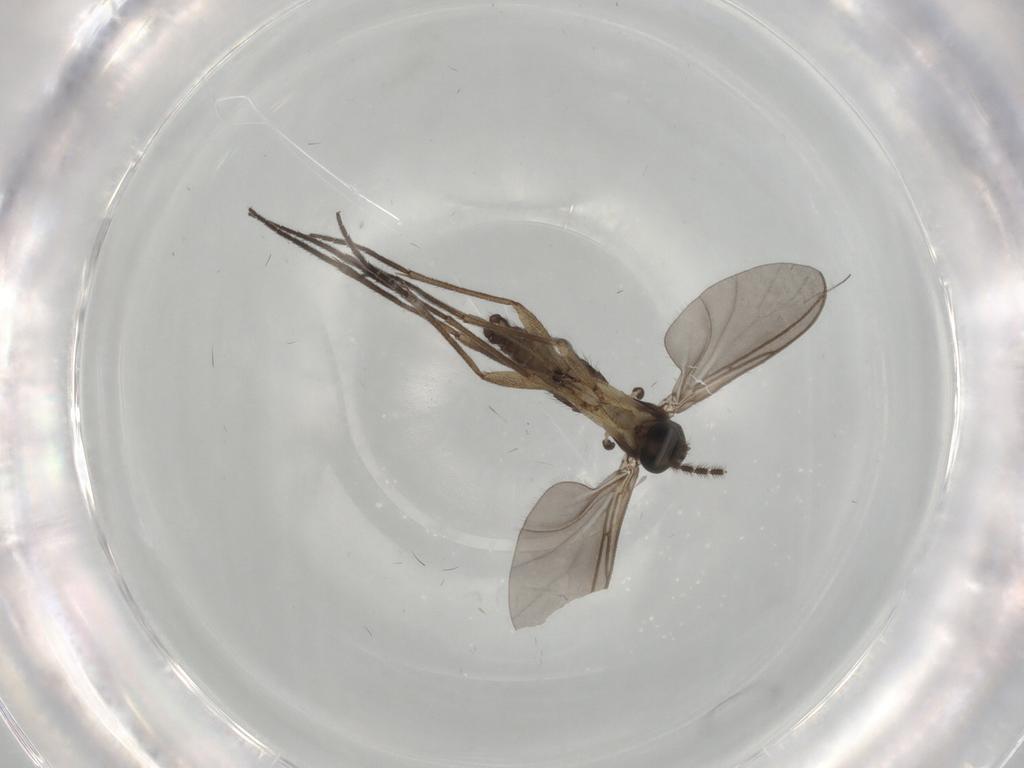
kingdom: Animalia
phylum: Arthropoda
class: Insecta
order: Diptera
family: Sciaridae
